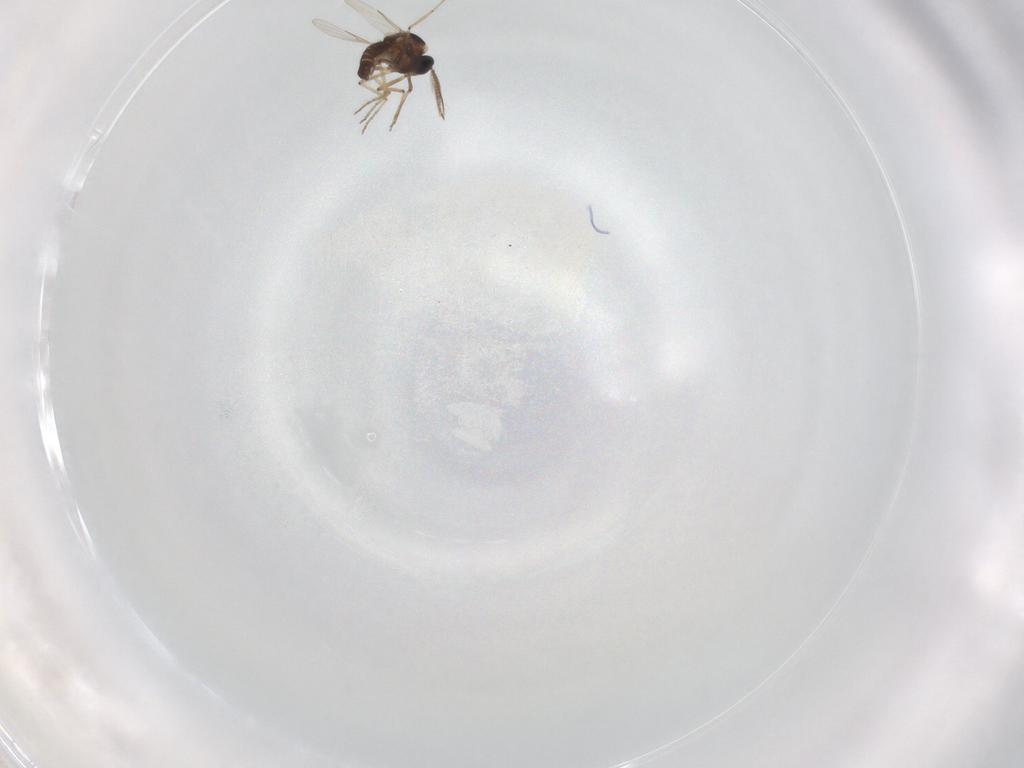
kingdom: Animalia
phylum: Arthropoda
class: Insecta
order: Diptera
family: Ceratopogonidae
